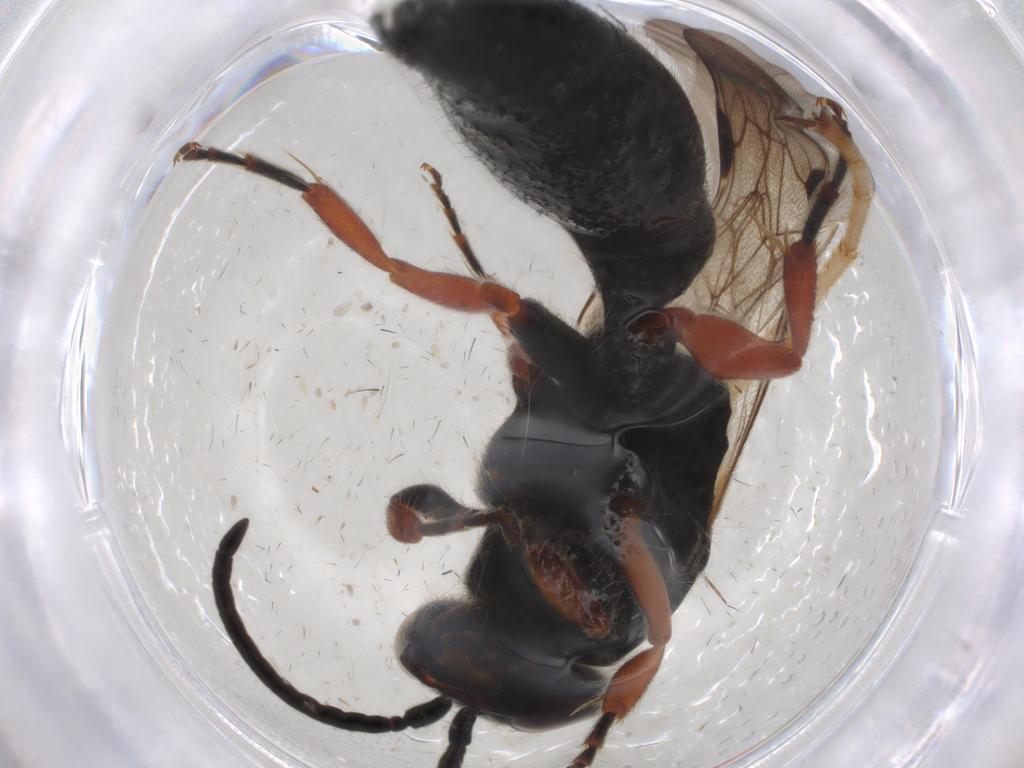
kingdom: Animalia
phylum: Arthropoda
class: Insecta
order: Hymenoptera
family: Tiphiidae
